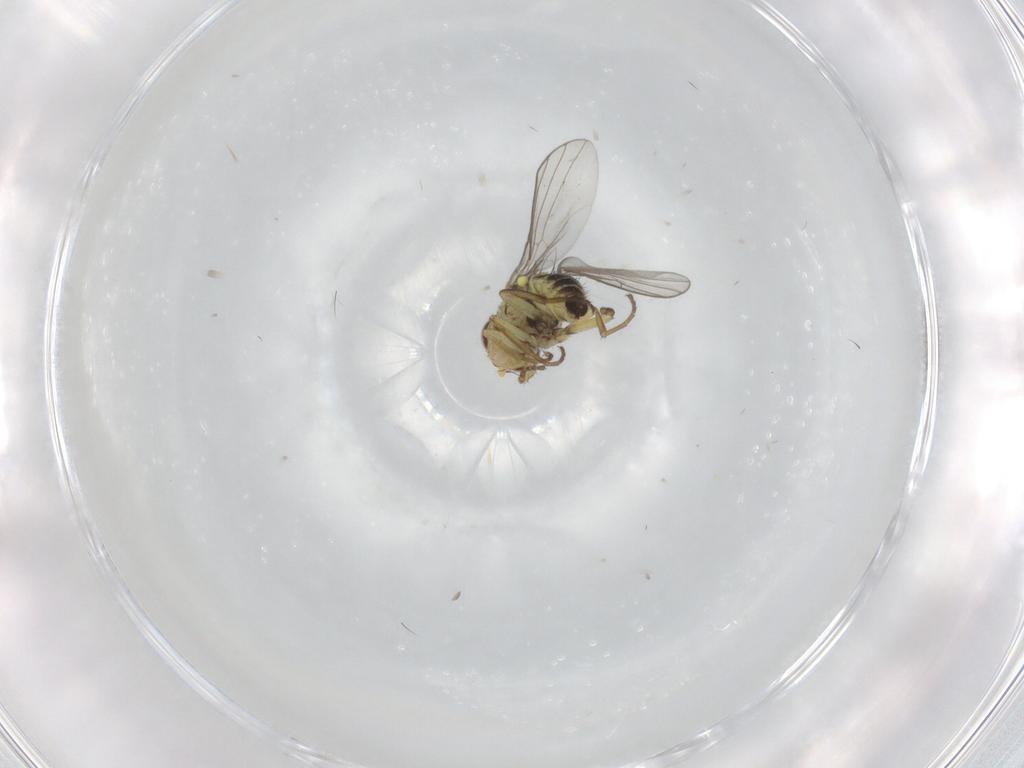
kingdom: Animalia
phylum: Arthropoda
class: Insecta
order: Diptera
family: Agromyzidae
